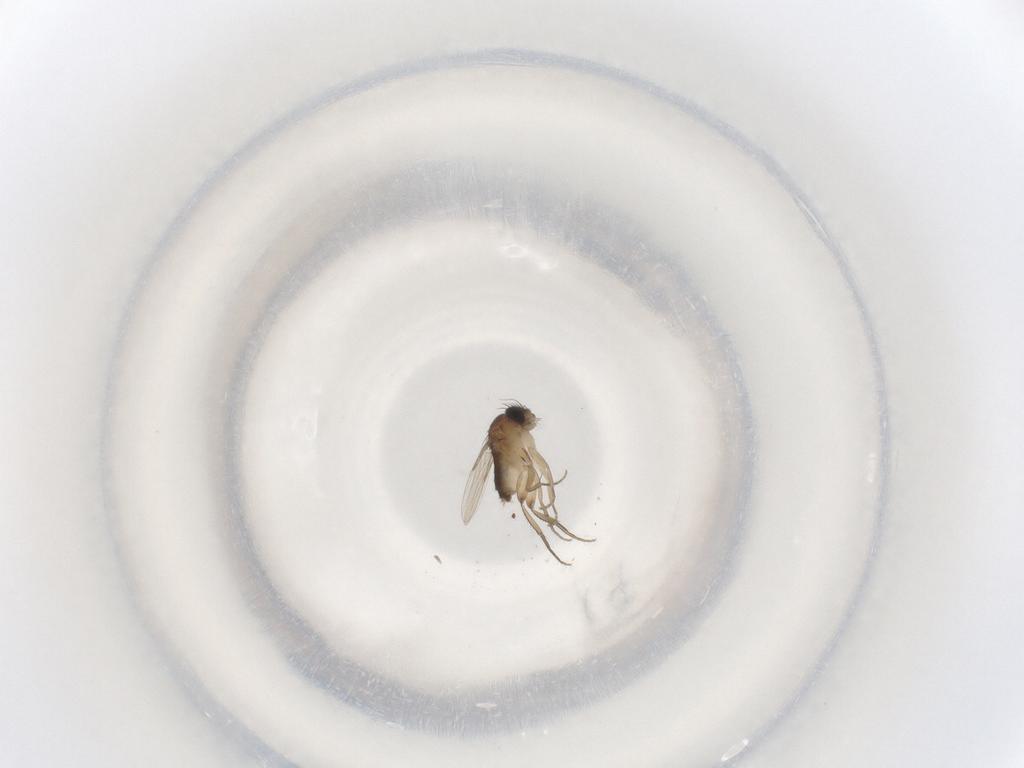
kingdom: Animalia
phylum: Arthropoda
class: Insecta
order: Diptera
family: Phoridae
